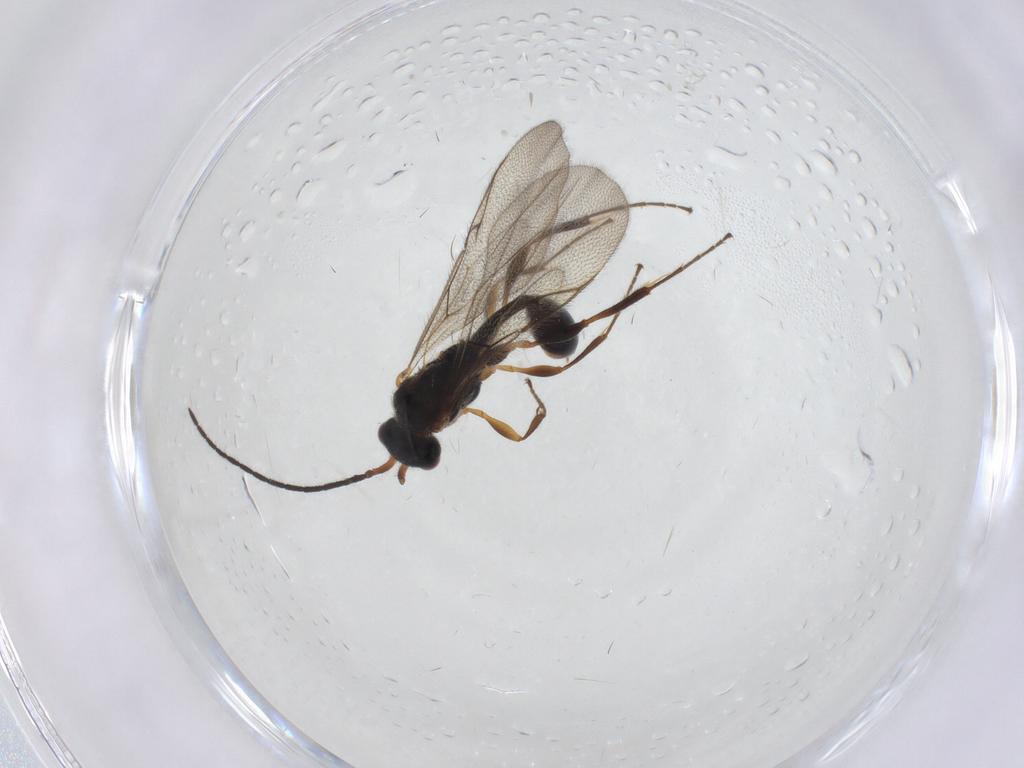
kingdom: Animalia
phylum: Arthropoda
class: Insecta
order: Hymenoptera
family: Diapriidae
